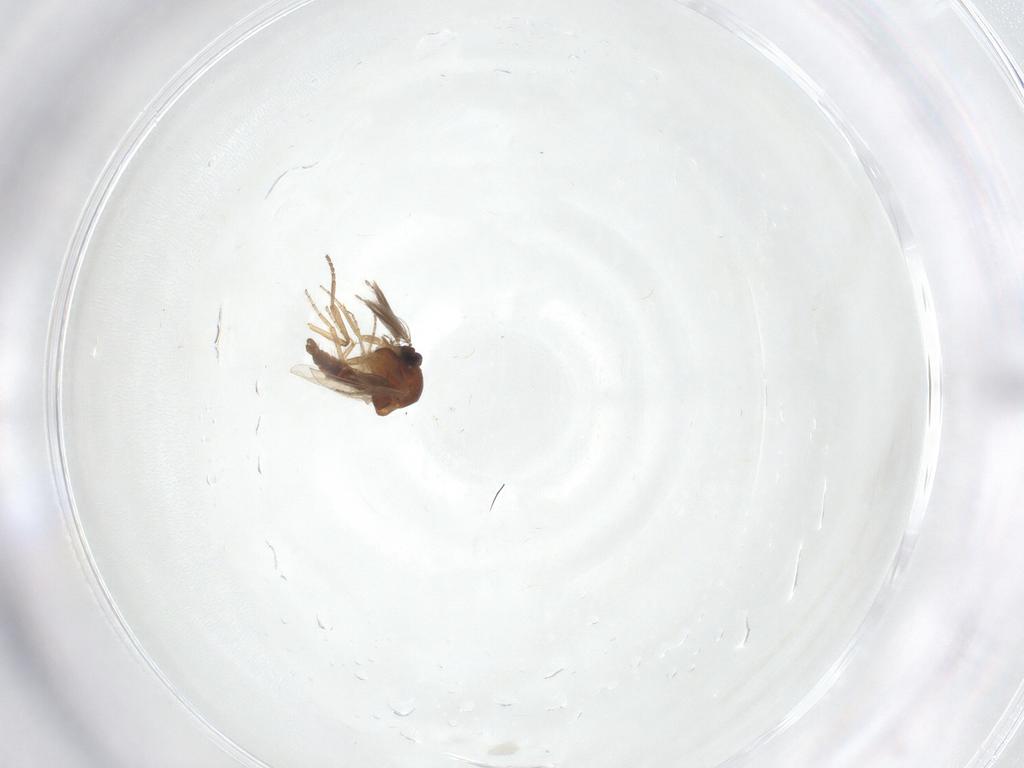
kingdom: Animalia
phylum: Arthropoda
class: Insecta
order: Diptera
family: Ceratopogonidae
